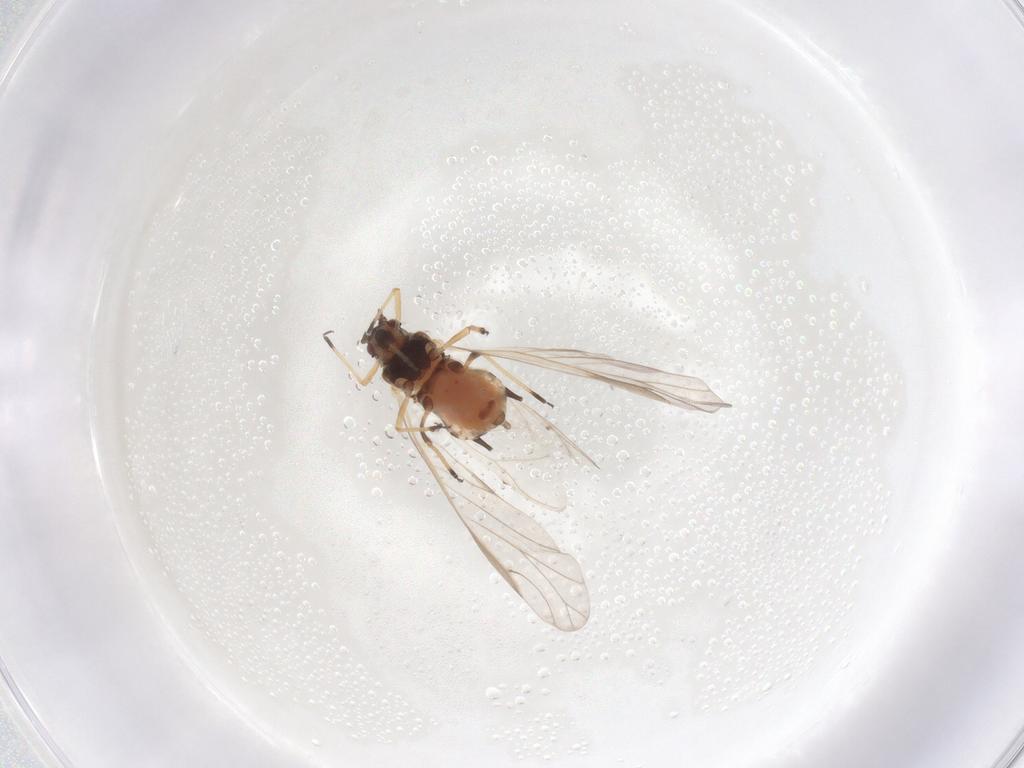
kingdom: Animalia
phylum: Arthropoda
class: Insecta
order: Hemiptera
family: Aphididae
